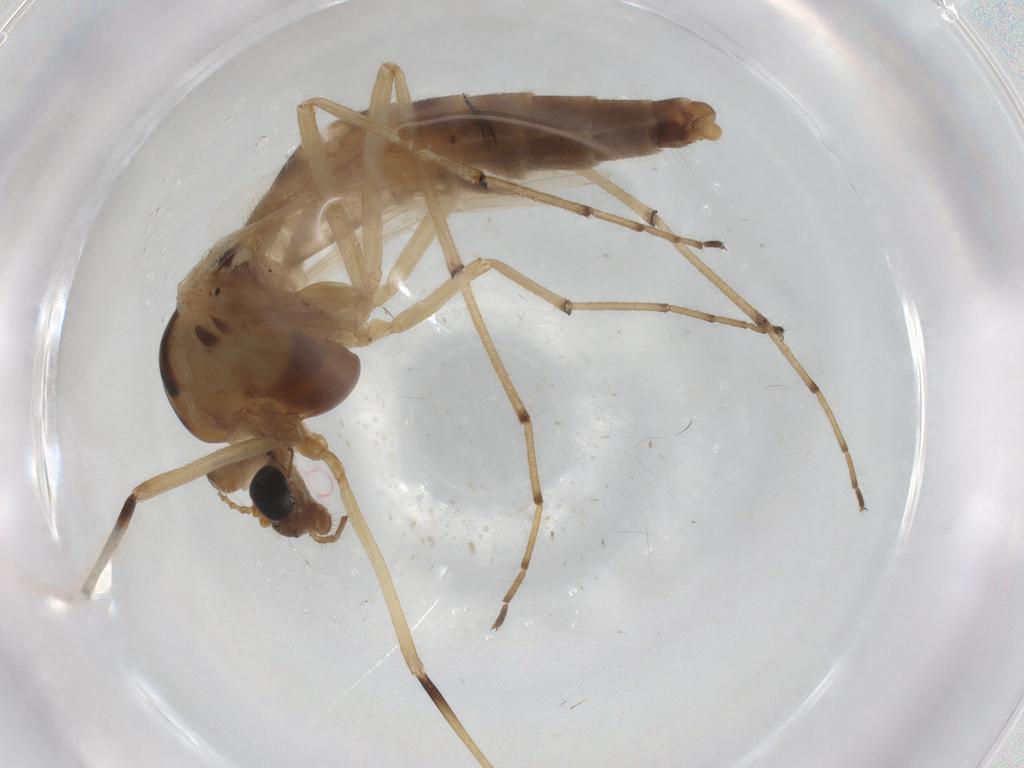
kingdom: Animalia
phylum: Arthropoda
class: Insecta
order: Diptera
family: Chironomidae
